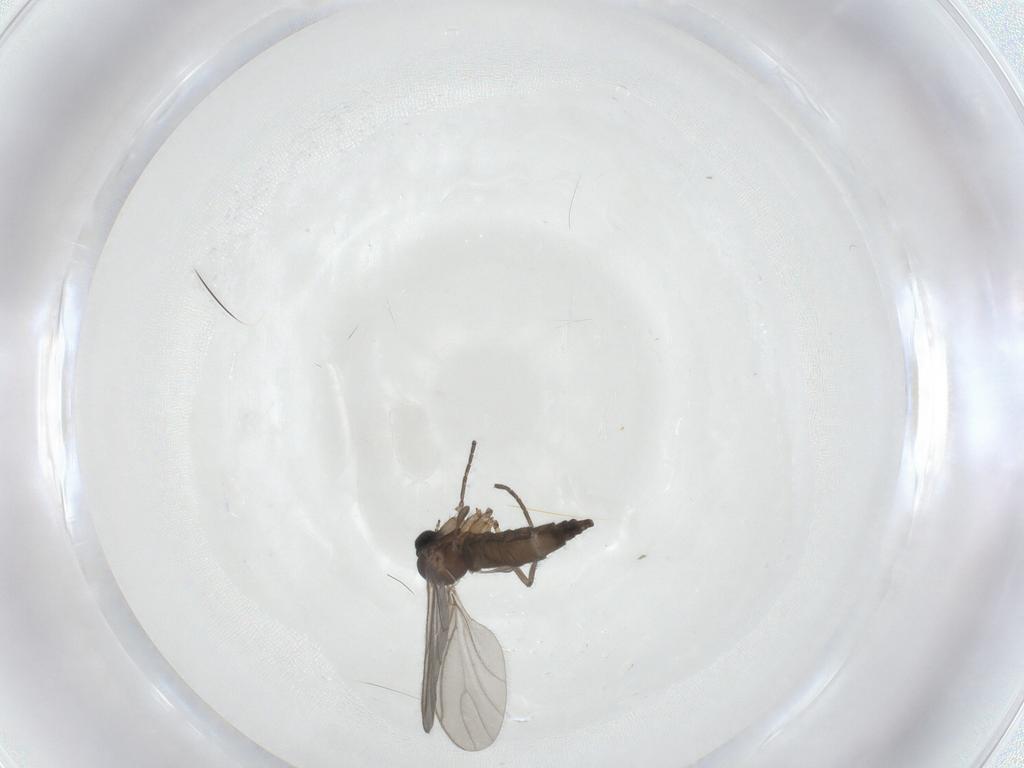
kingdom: Animalia
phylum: Arthropoda
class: Insecta
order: Diptera
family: Sciaridae
